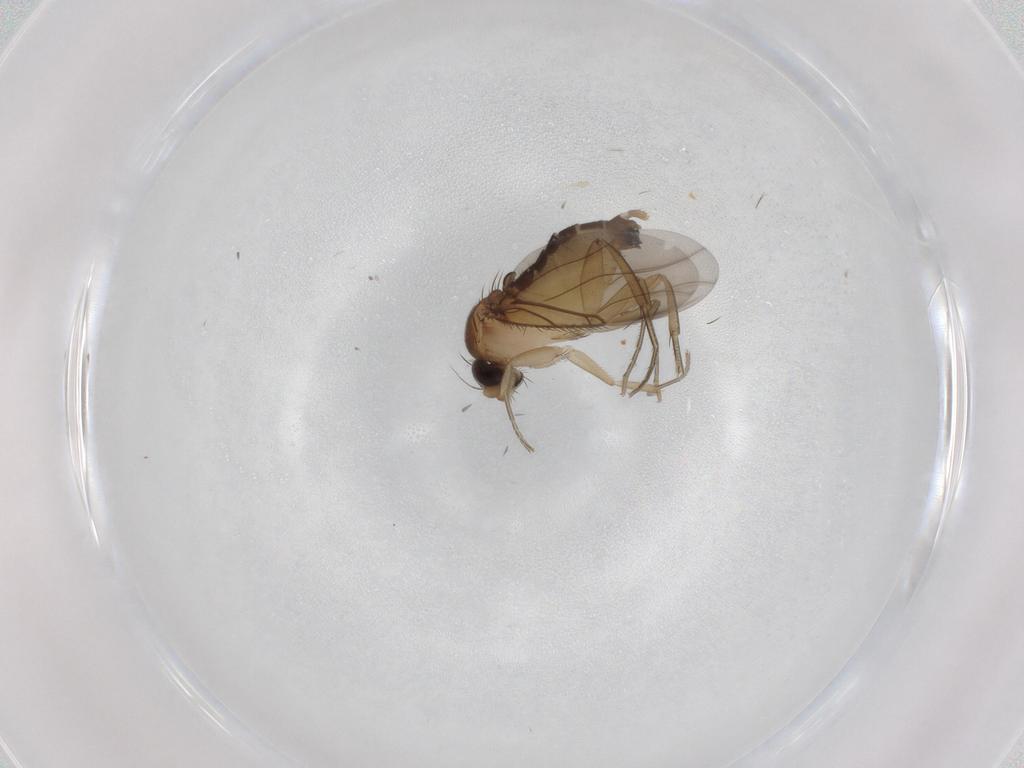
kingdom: Animalia
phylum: Arthropoda
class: Insecta
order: Diptera
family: Phoridae
